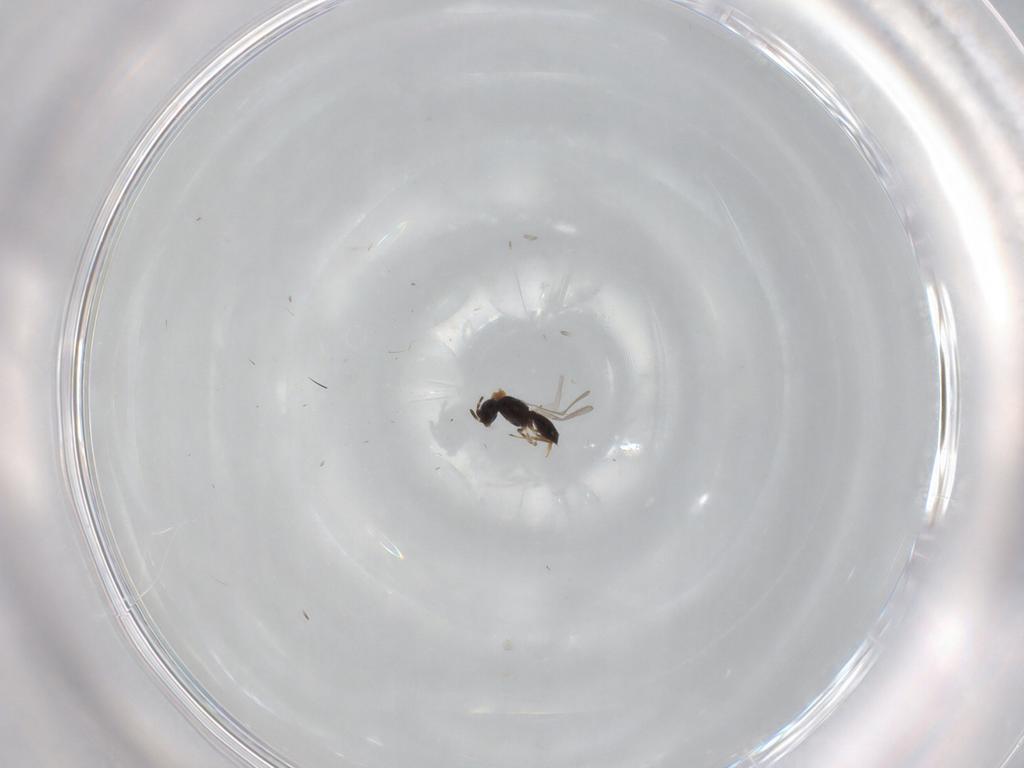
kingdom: Animalia
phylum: Arthropoda
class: Insecta
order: Hymenoptera
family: Scelionidae
